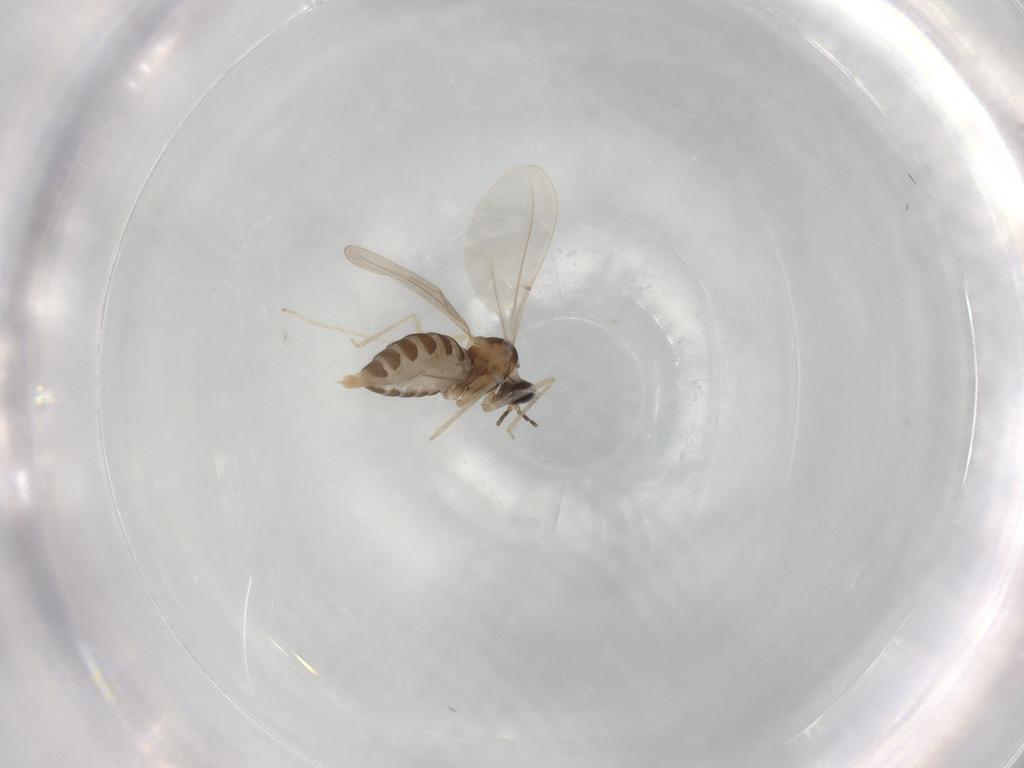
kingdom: Animalia
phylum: Arthropoda
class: Insecta
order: Diptera
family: Cecidomyiidae
